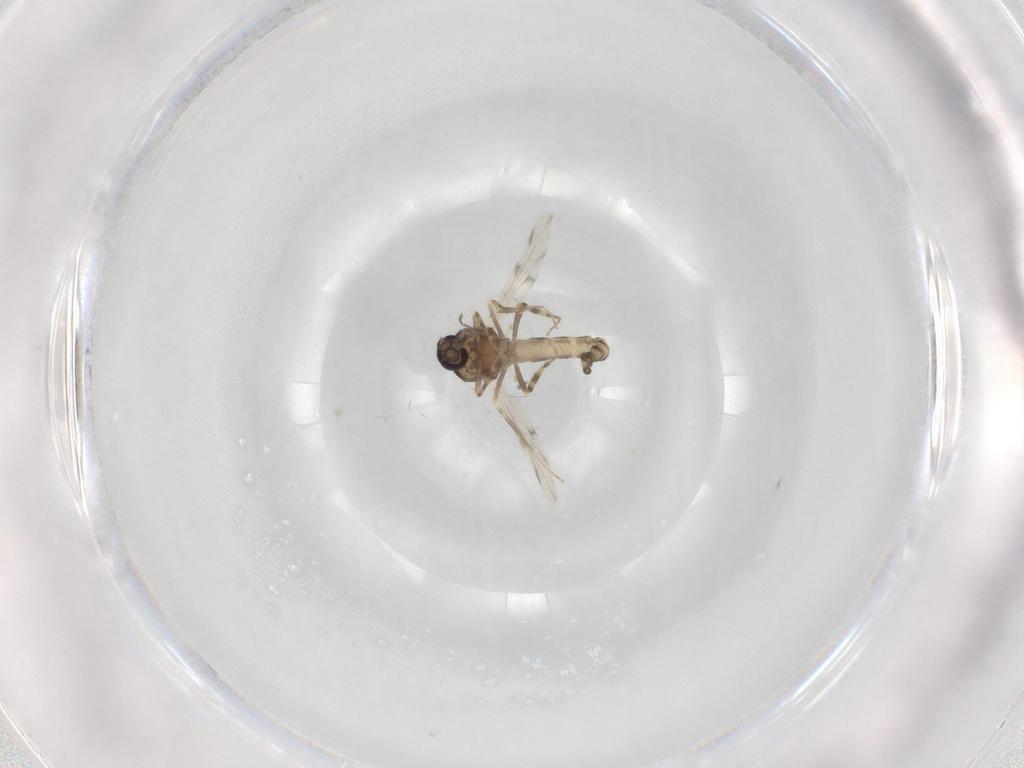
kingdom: Animalia
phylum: Arthropoda
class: Insecta
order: Diptera
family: Ceratopogonidae
